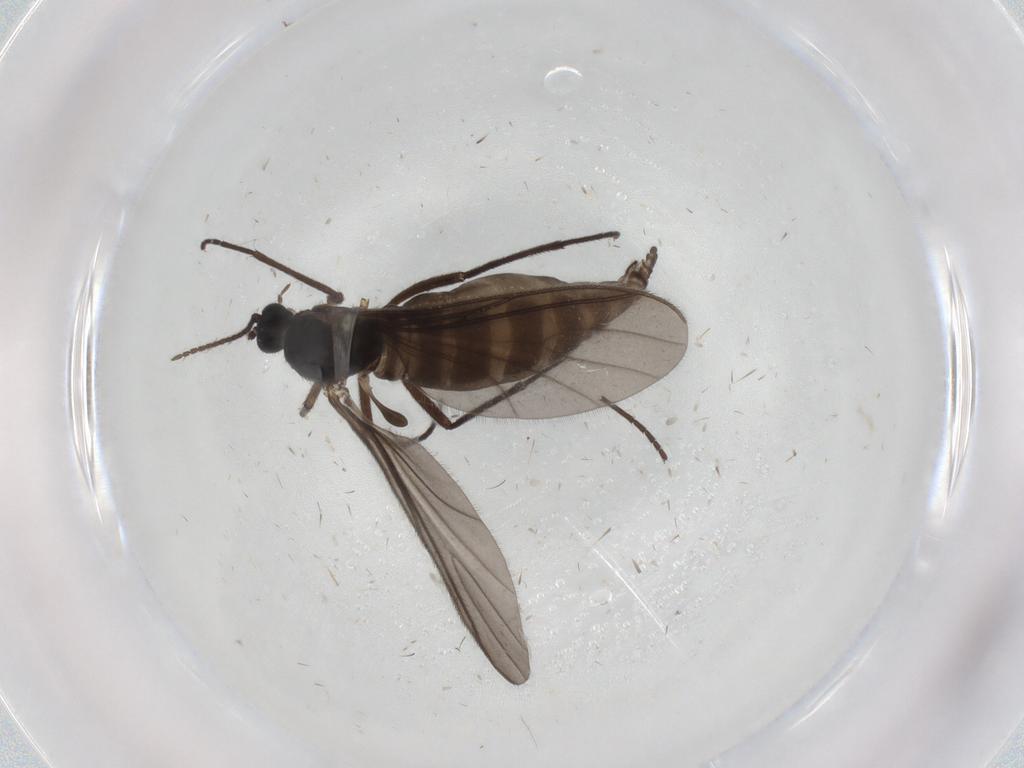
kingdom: Animalia
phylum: Arthropoda
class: Insecta
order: Diptera
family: Sciaridae
